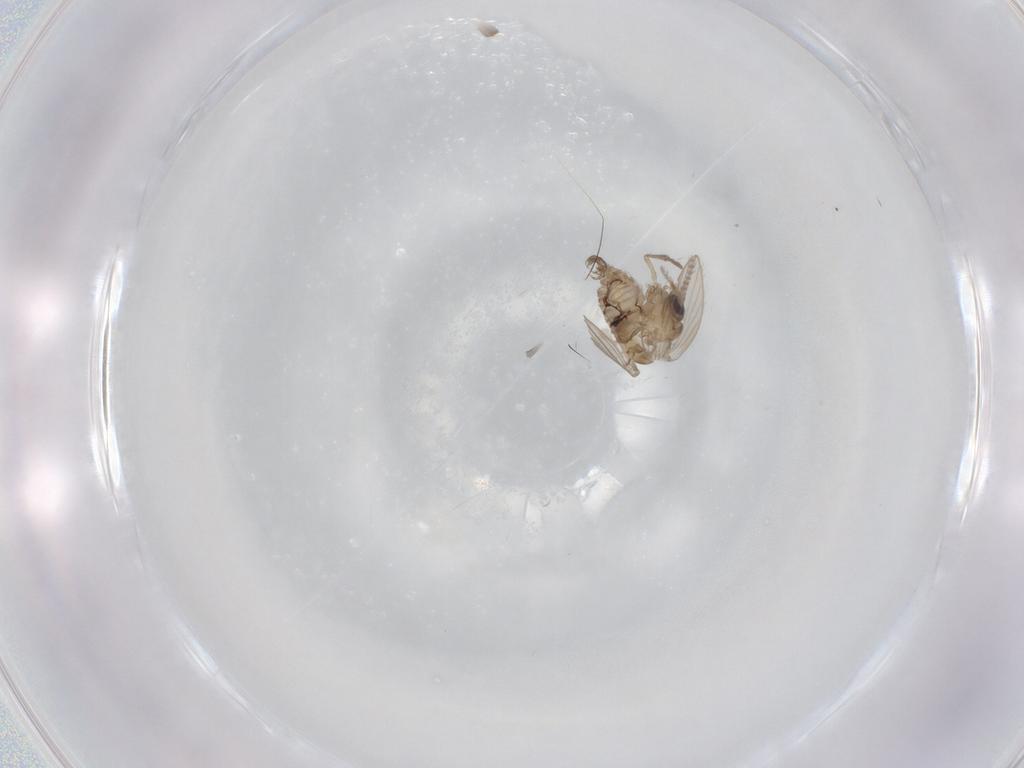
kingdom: Animalia
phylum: Arthropoda
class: Insecta
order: Diptera
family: Psychodidae
